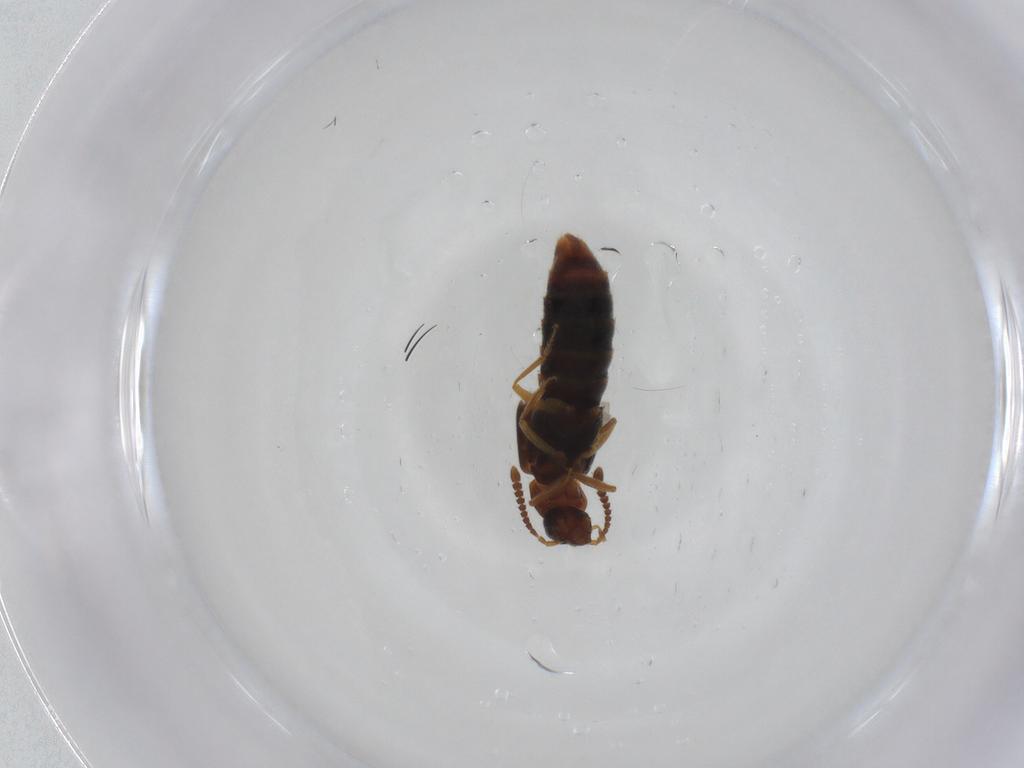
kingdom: Animalia
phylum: Arthropoda
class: Insecta
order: Coleoptera
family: Staphylinidae
